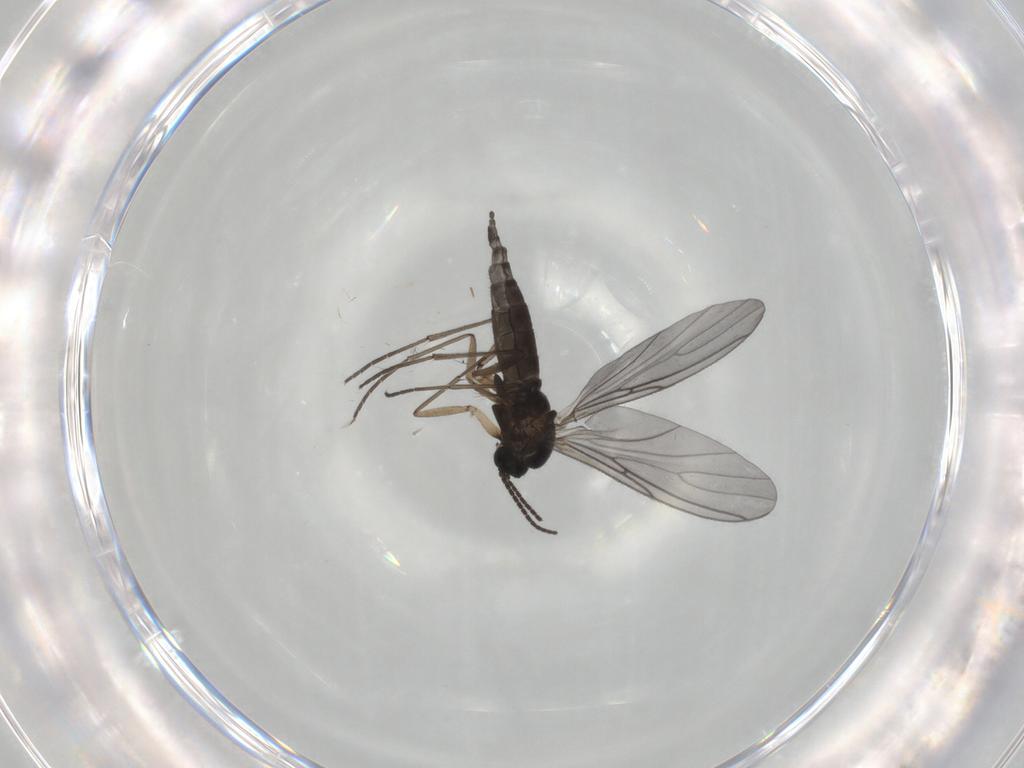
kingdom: Animalia
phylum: Arthropoda
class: Insecta
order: Diptera
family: Sciaridae
